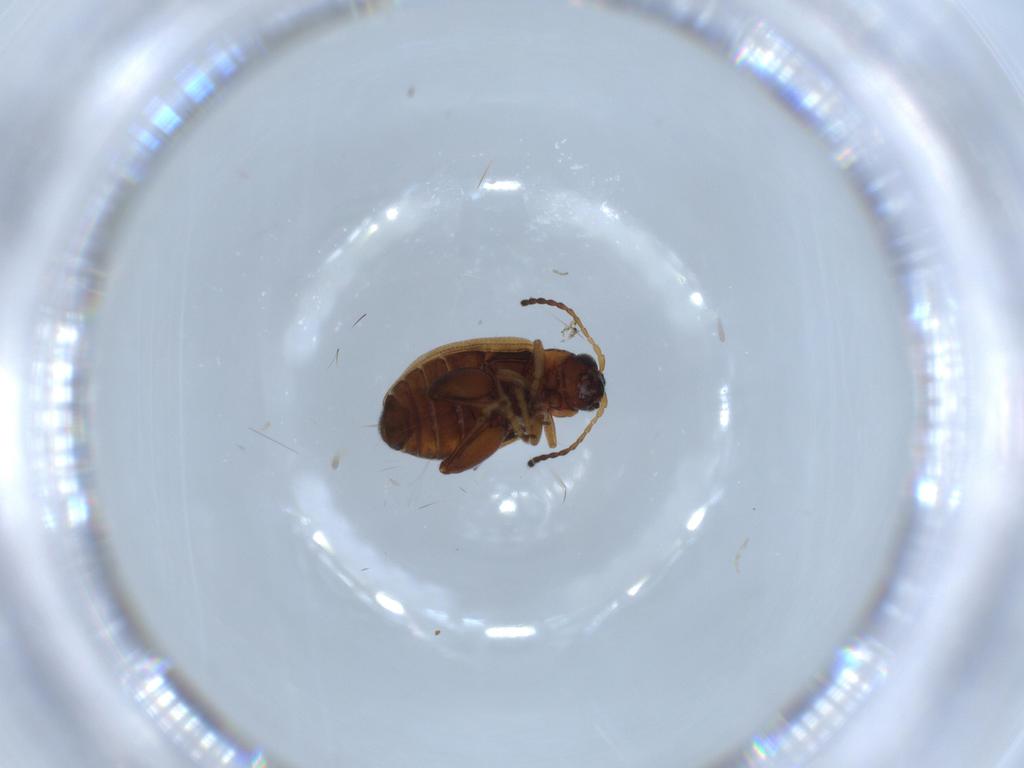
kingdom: Animalia
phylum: Arthropoda
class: Insecta
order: Coleoptera
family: Chrysomelidae
